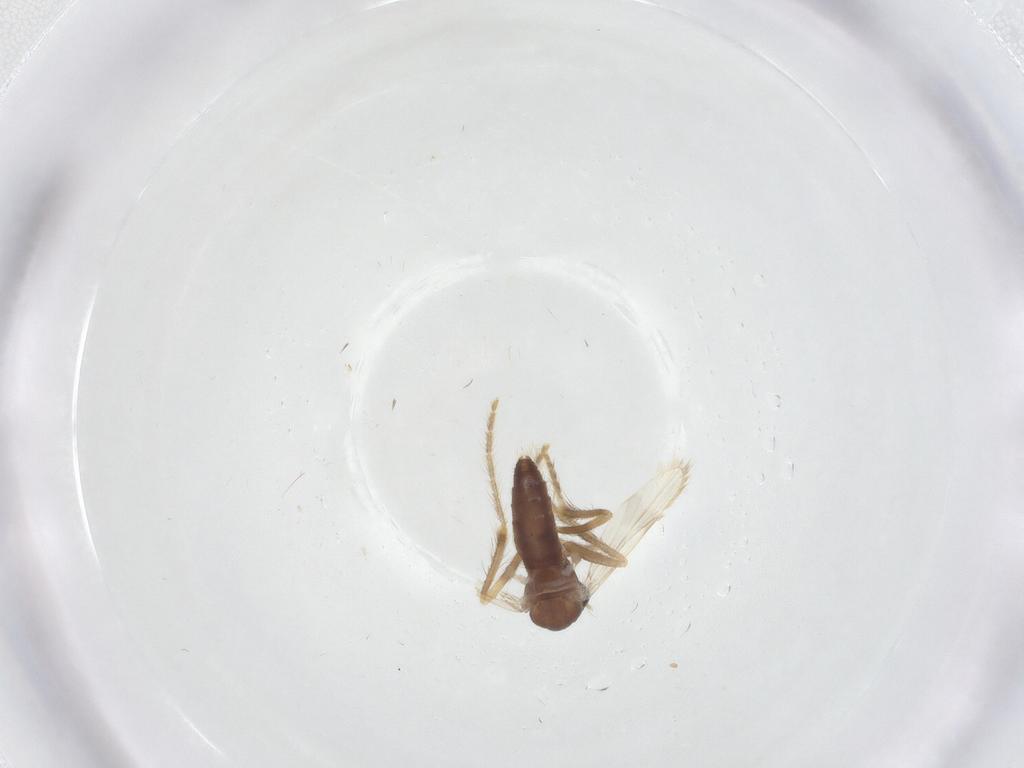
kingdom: Animalia
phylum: Arthropoda
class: Insecta
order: Diptera
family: Corethrellidae
